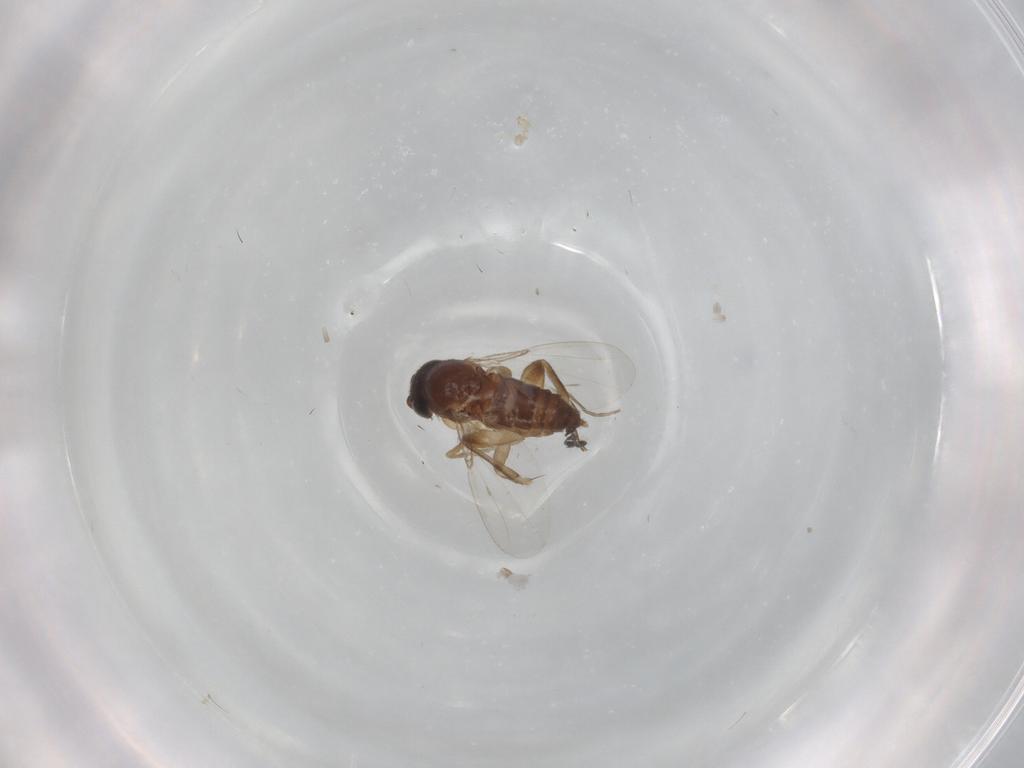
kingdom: Animalia
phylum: Arthropoda
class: Insecta
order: Diptera
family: Phoridae
